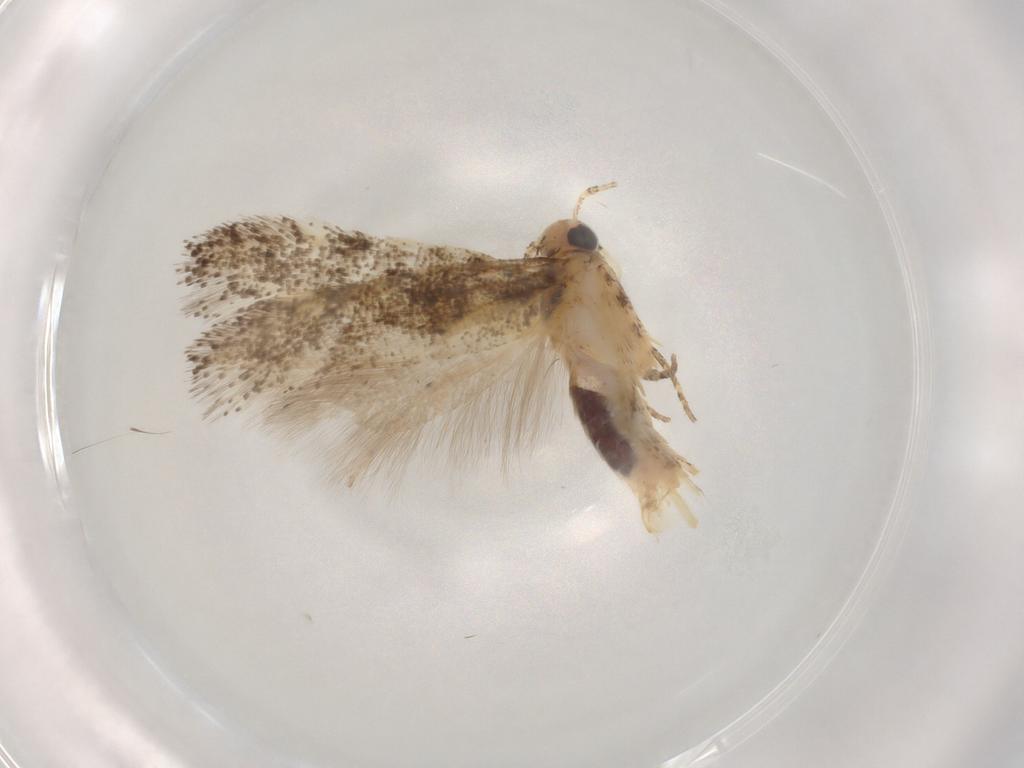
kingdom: Animalia
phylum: Arthropoda
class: Insecta
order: Lepidoptera
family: Gelechiidae
